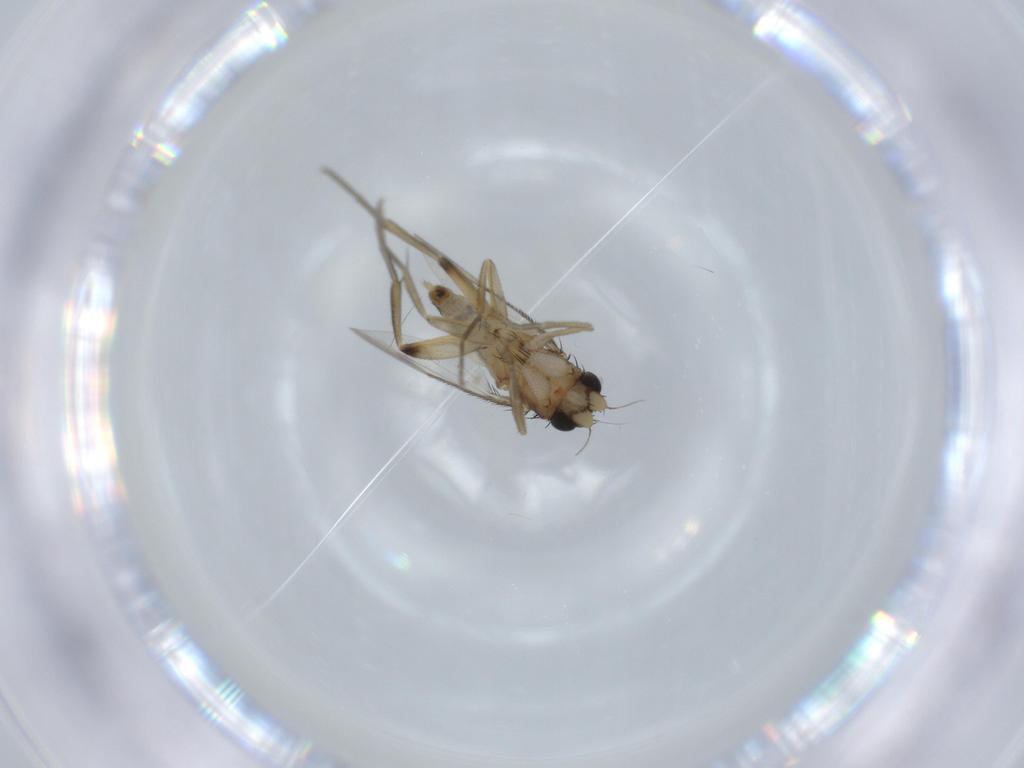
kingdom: Animalia
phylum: Arthropoda
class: Insecta
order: Diptera
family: Phoridae
